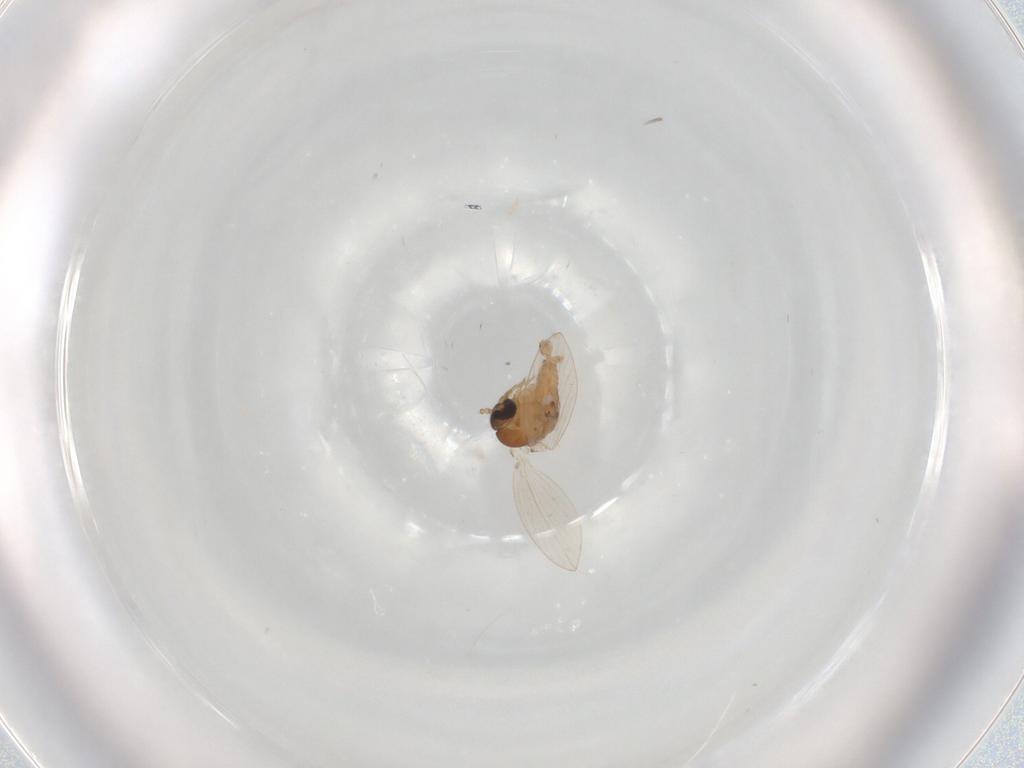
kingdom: Animalia
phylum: Arthropoda
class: Insecta
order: Diptera
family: Psychodidae
